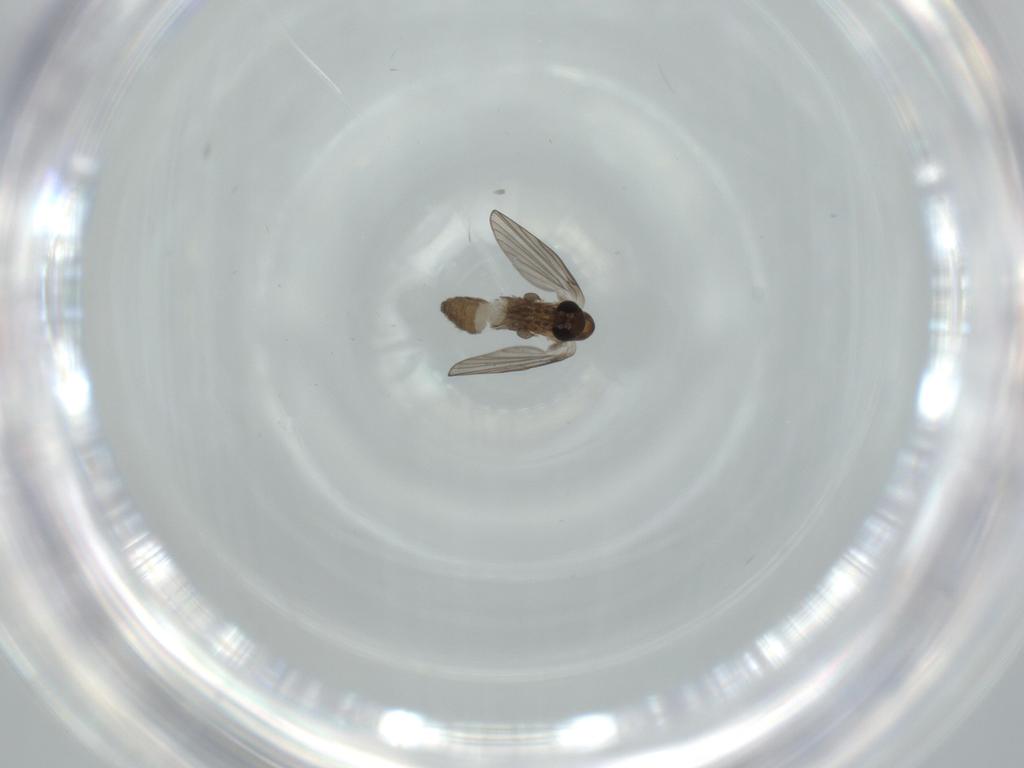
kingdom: Animalia
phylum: Arthropoda
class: Insecta
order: Diptera
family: Psychodidae
